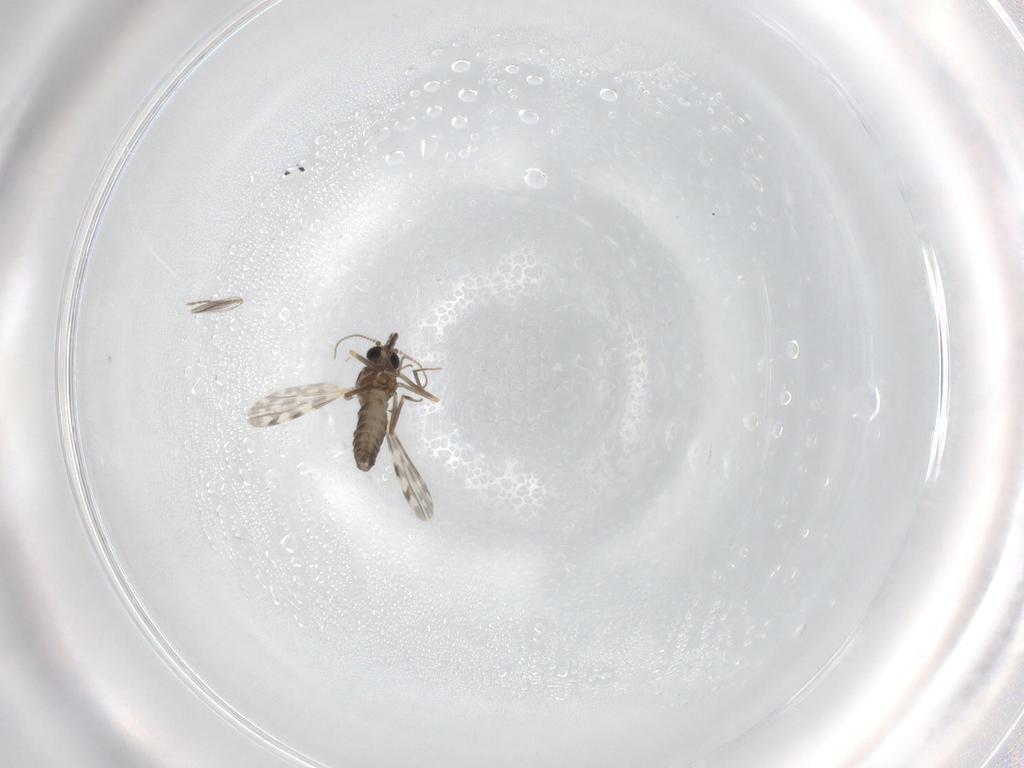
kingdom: Animalia
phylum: Arthropoda
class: Insecta
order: Diptera
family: Ceratopogonidae
